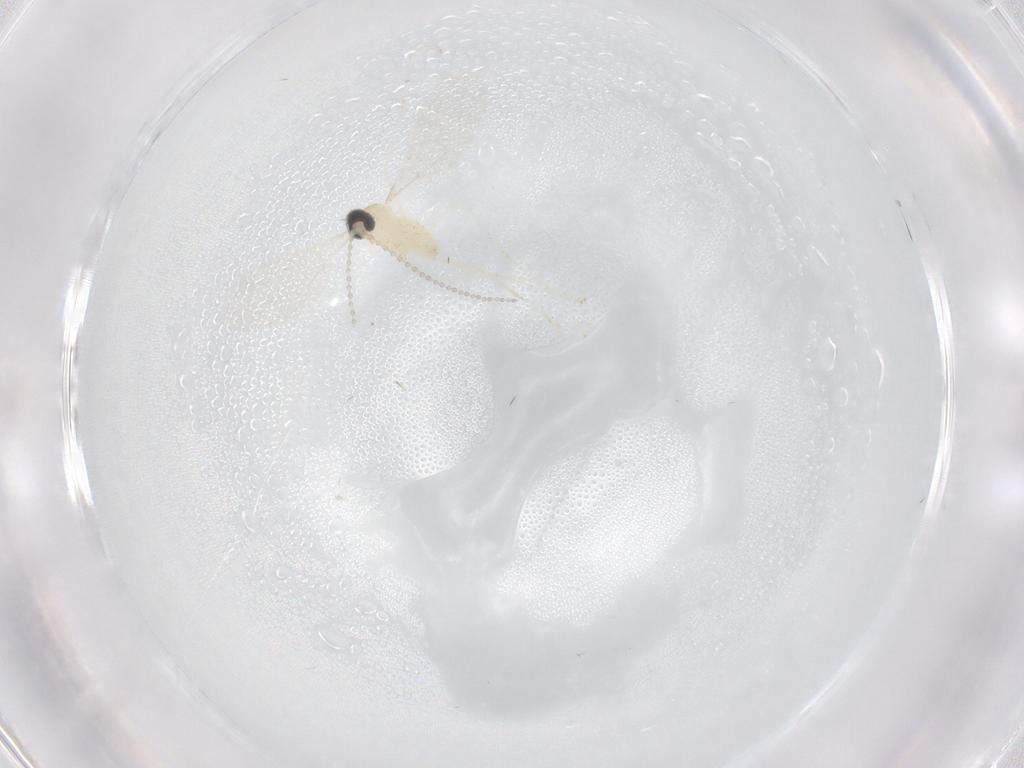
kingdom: Animalia
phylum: Arthropoda
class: Insecta
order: Diptera
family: Cecidomyiidae
